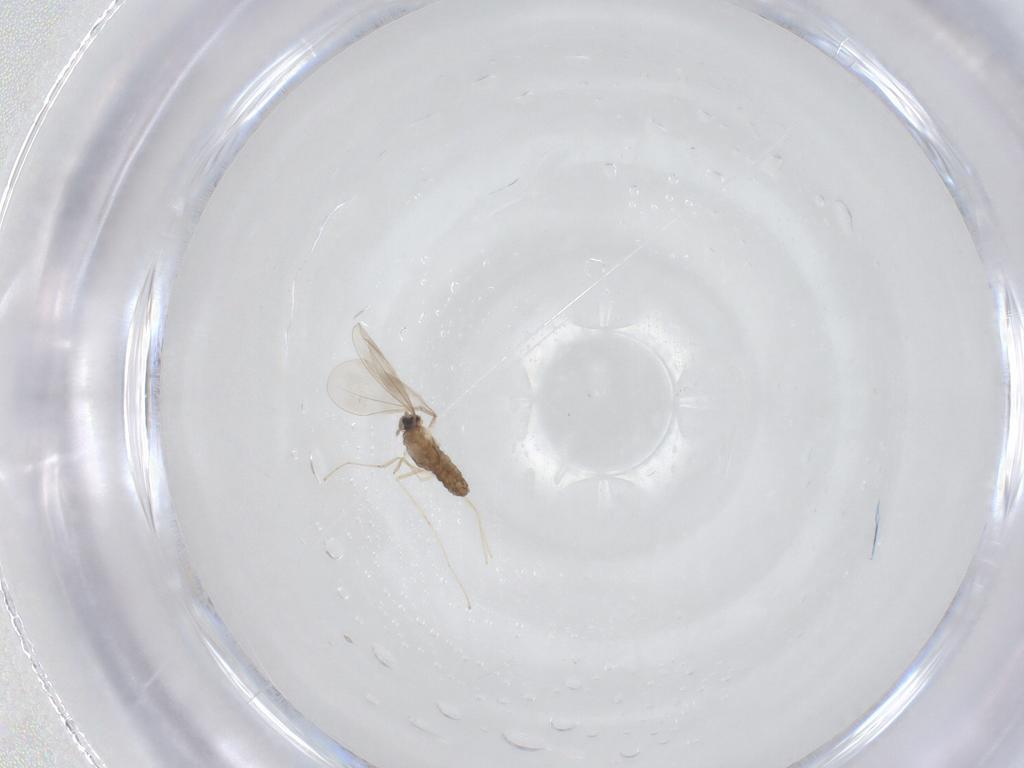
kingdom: Animalia
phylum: Arthropoda
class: Insecta
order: Diptera
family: Cecidomyiidae
